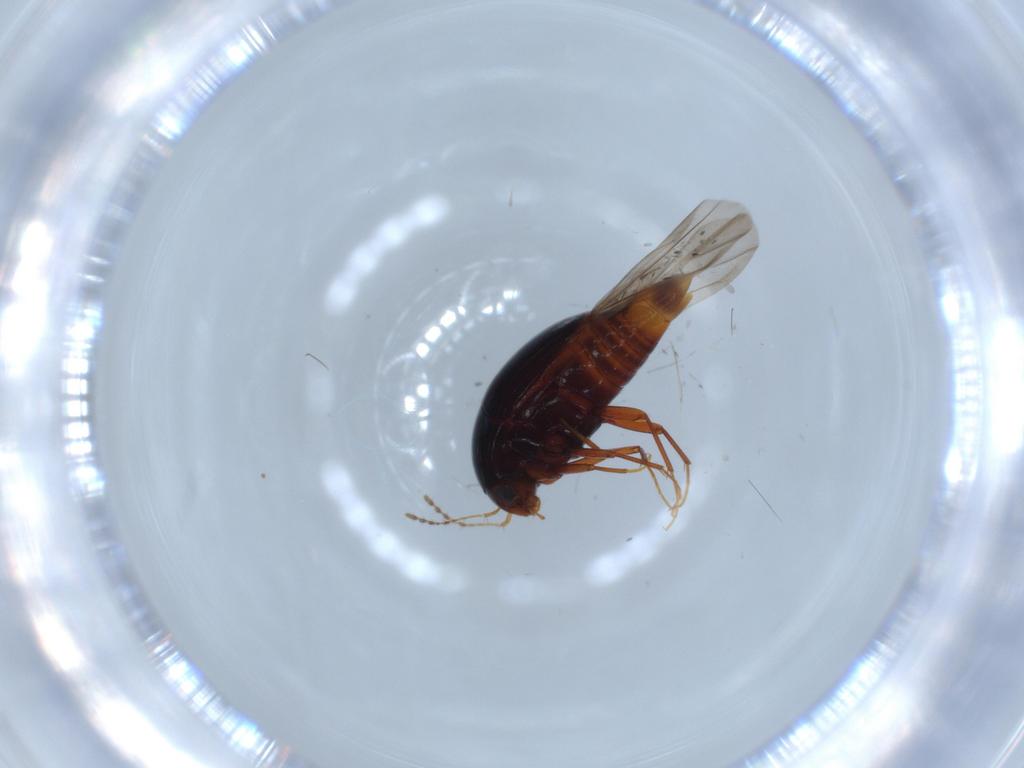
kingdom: Animalia
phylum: Arthropoda
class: Insecta
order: Coleoptera
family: Staphylinidae
